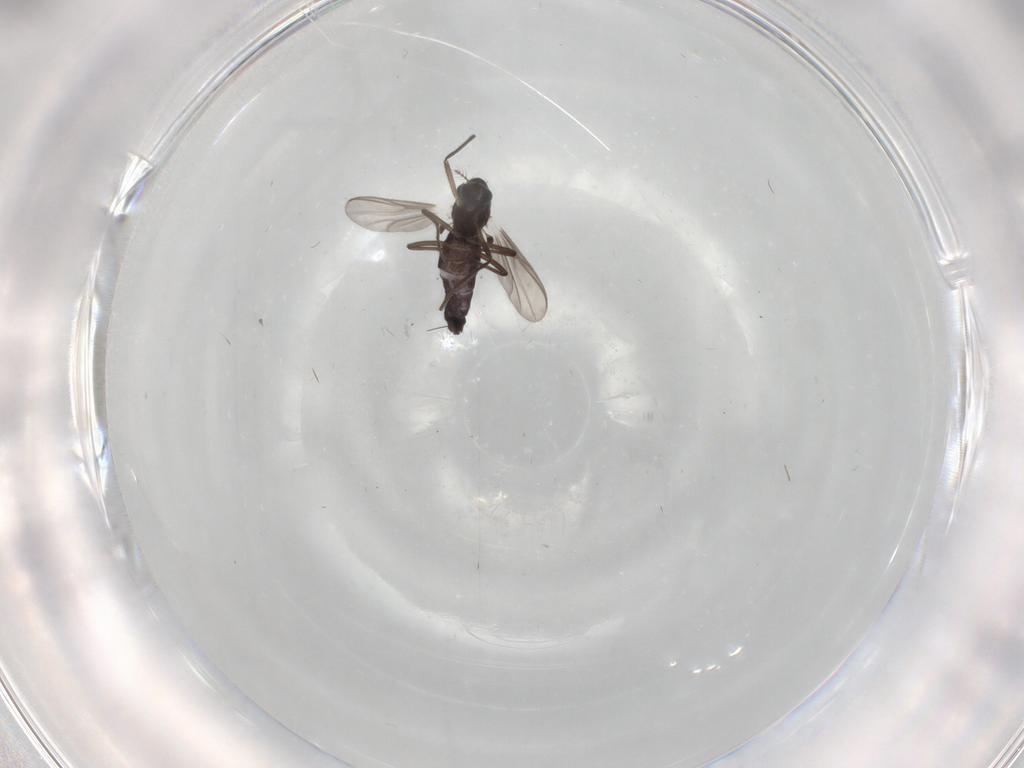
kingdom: Animalia
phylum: Arthropoda
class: Insecta
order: Diptera
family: Chironomidae
